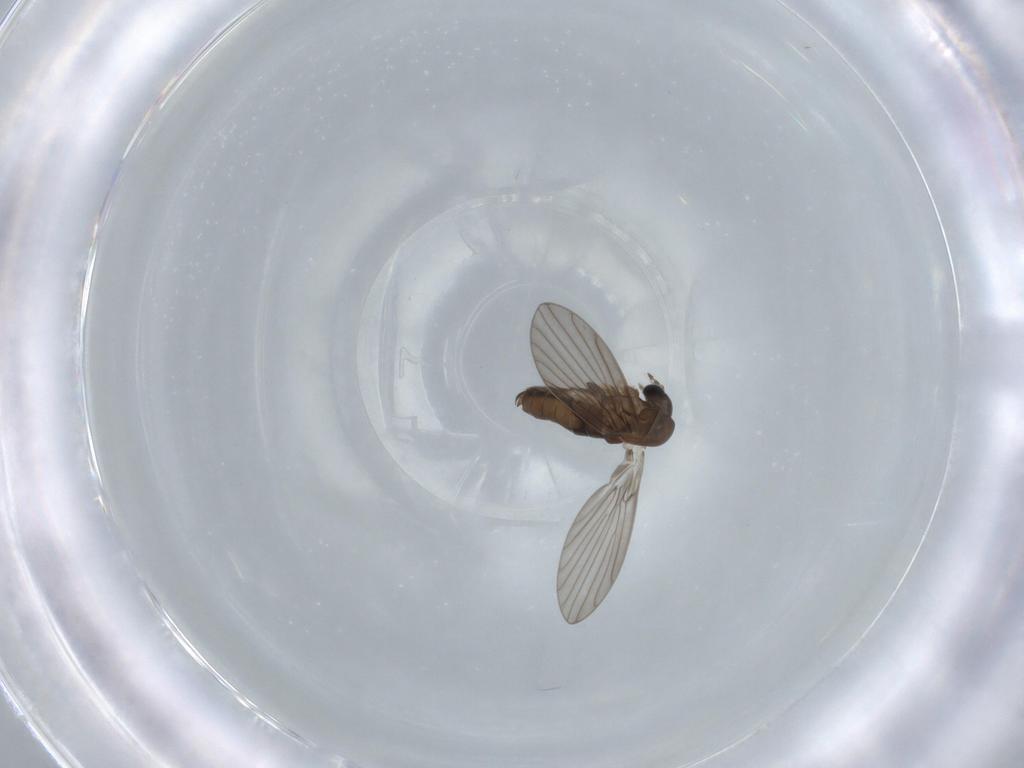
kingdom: Animalia
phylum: Arthropoda
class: Insecta
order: Diptera
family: Psychodidae
